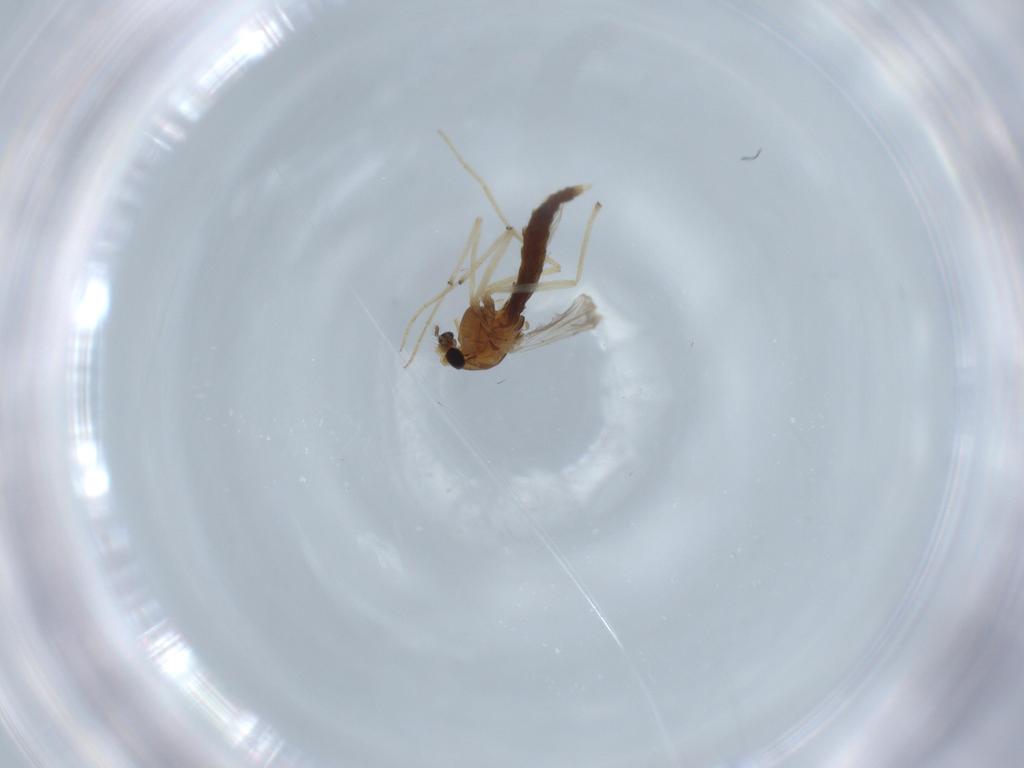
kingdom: Animalia
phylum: Arthropoda
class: Insecta
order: Diptera
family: Chironomidae
